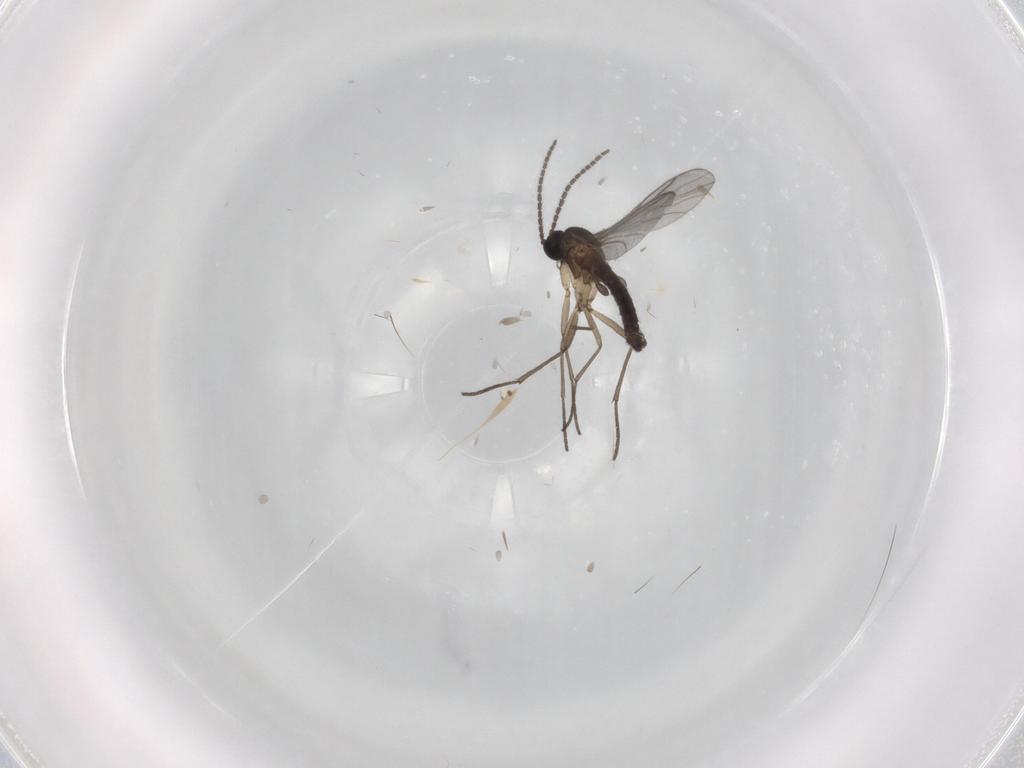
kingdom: Animalia
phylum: Arthropoda
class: Insecta
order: Diptera
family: Sciaridae
